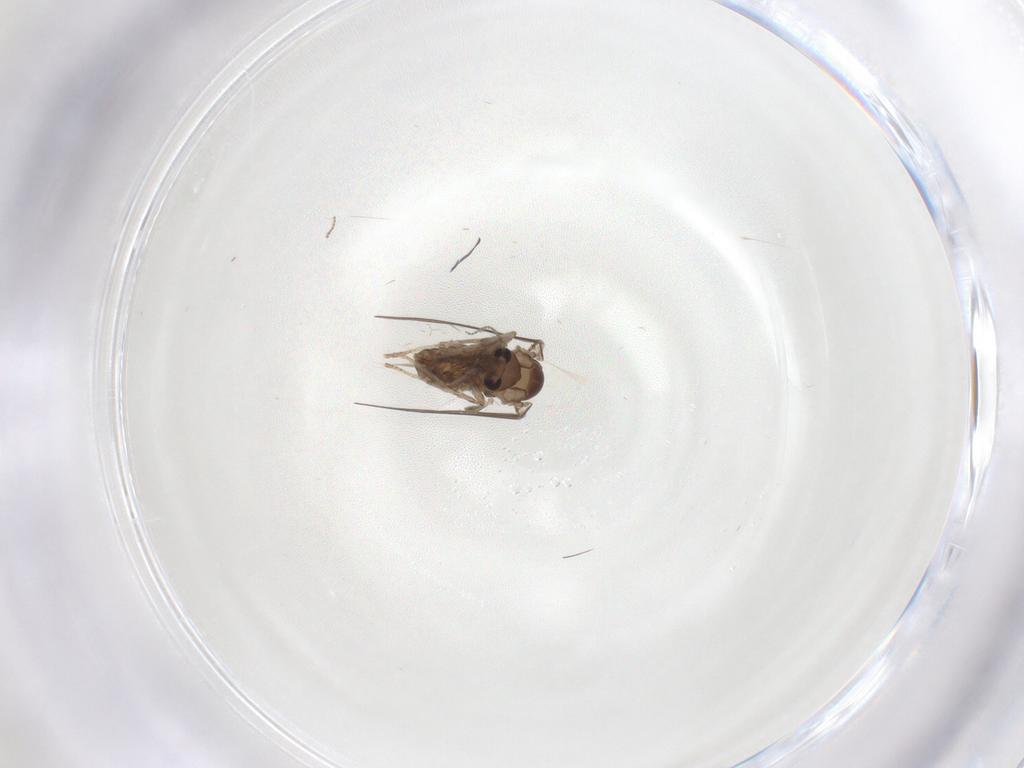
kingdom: Animalia
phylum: Arthropoda
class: Insecta
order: Diptera
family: Psychodidae
